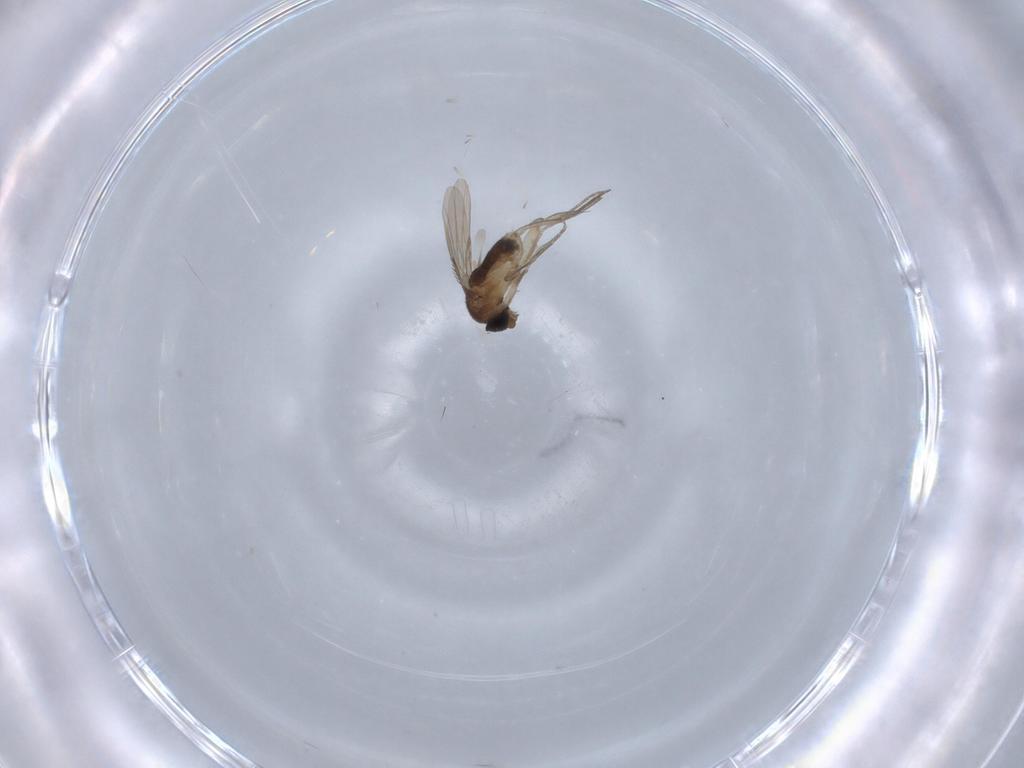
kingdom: Animalia
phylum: Arthropoda
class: Insecta
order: Diptera
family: Phoridae
